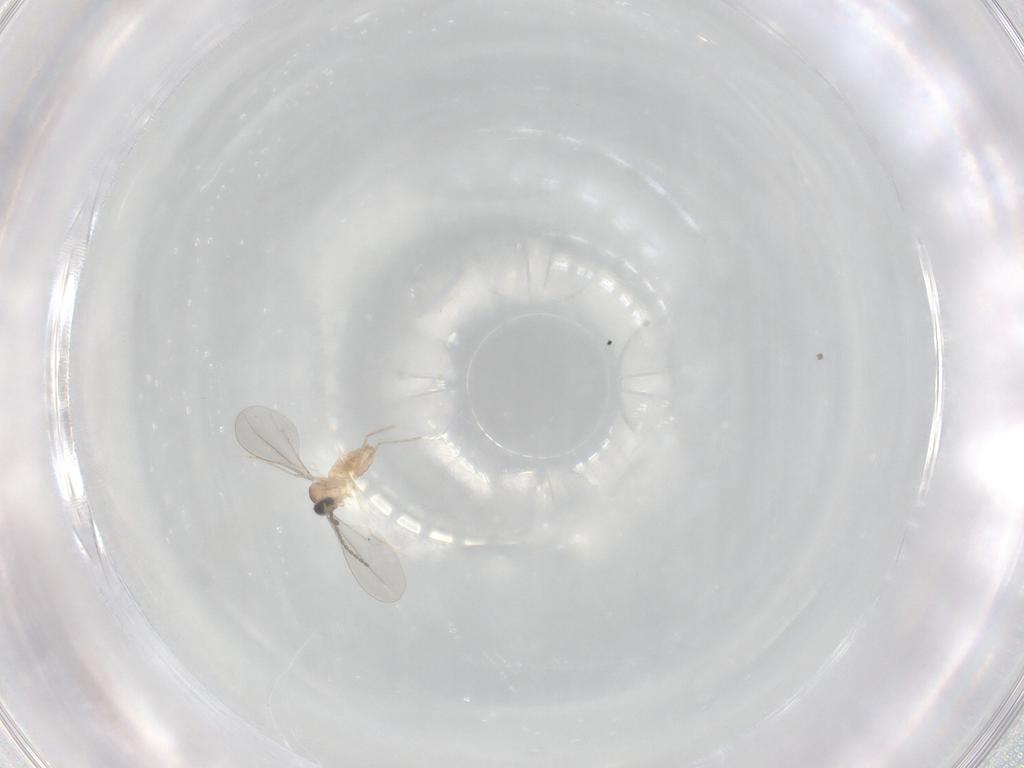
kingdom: Animalia
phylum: Arthropoda
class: Insecta
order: Diptera
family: Cecidomyiidae
